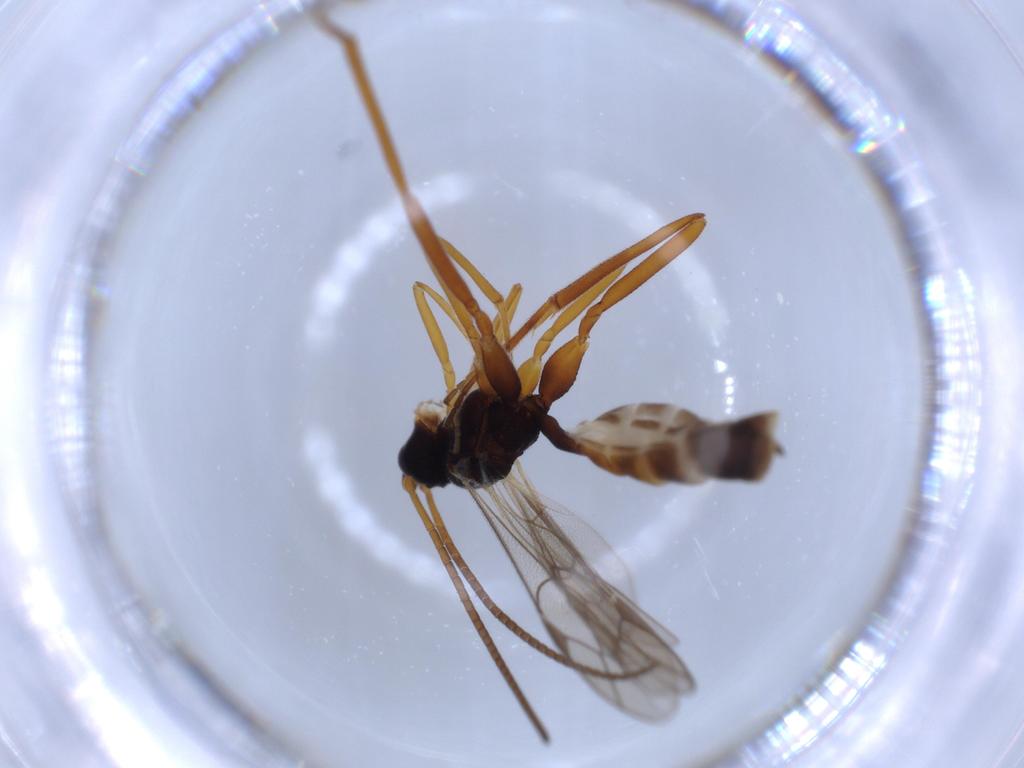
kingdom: Animalia
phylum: Arthropoda
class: Insecta
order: Hymenoptera
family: Ichneumonidae
